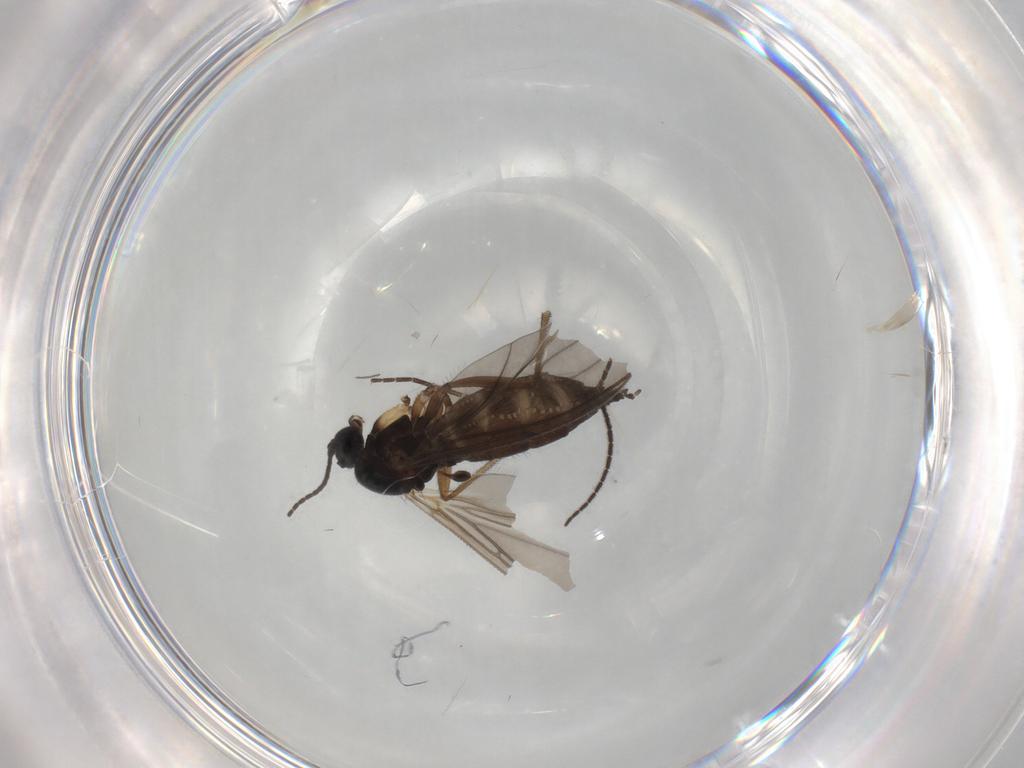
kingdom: Animalia
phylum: Arthropoda
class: Insecta
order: Diptera
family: Sciaridae
